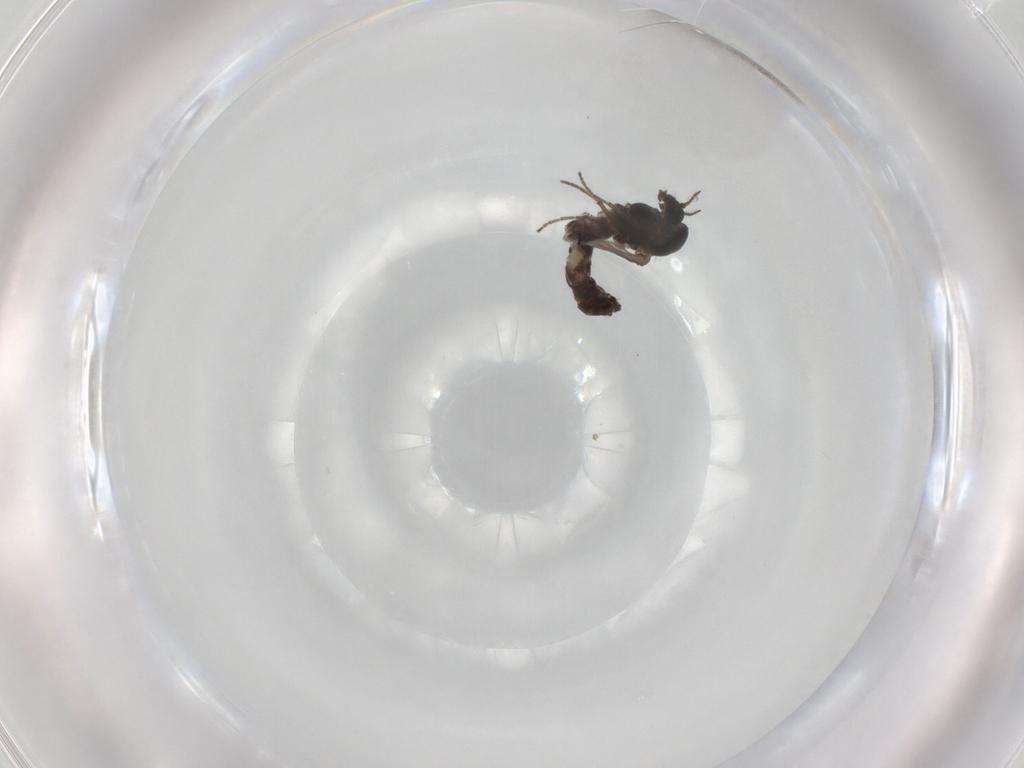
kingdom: Animalia
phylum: Arthropoda
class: Insecta
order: Diptera
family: Chironomidae
